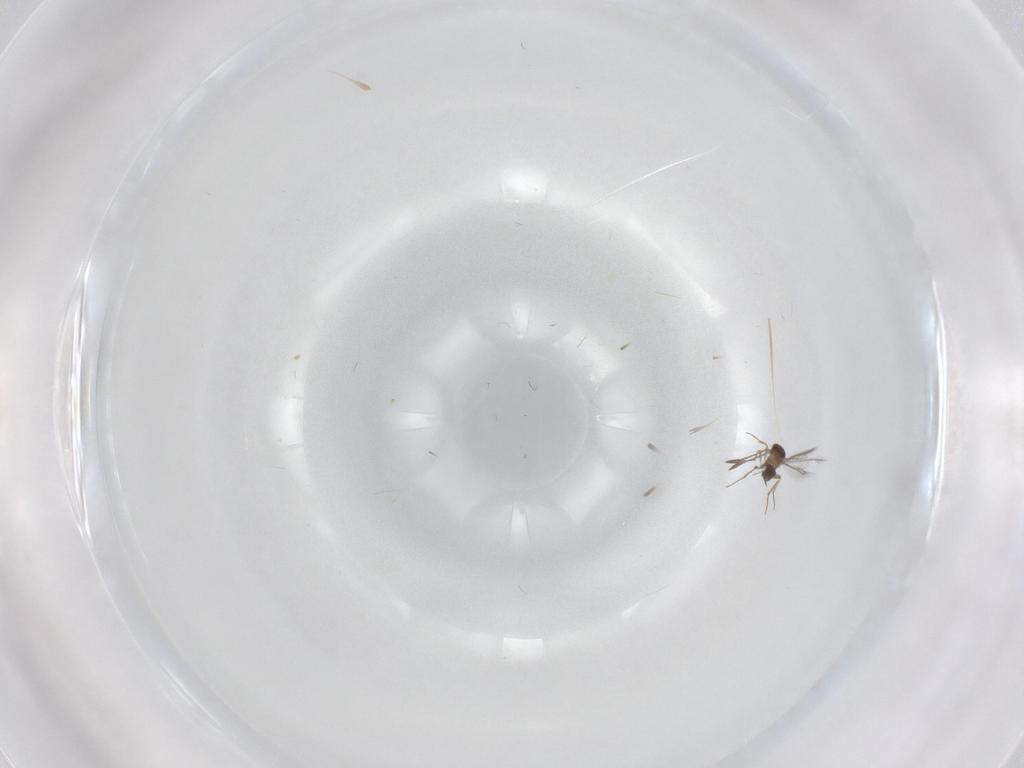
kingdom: Animalia
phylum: Arthropoda
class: Insecta
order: Hymenoptera
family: Mymaridae
